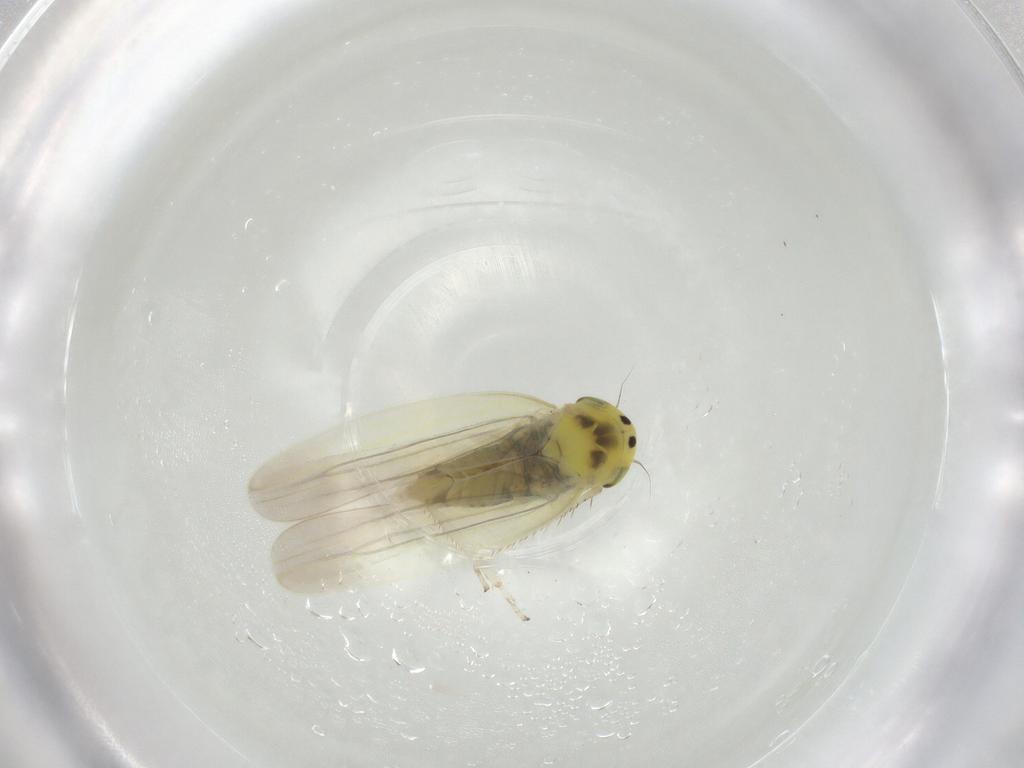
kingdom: Animalia
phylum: Arthropoda
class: Insecta
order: Hemiptera
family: Cicadellidae
